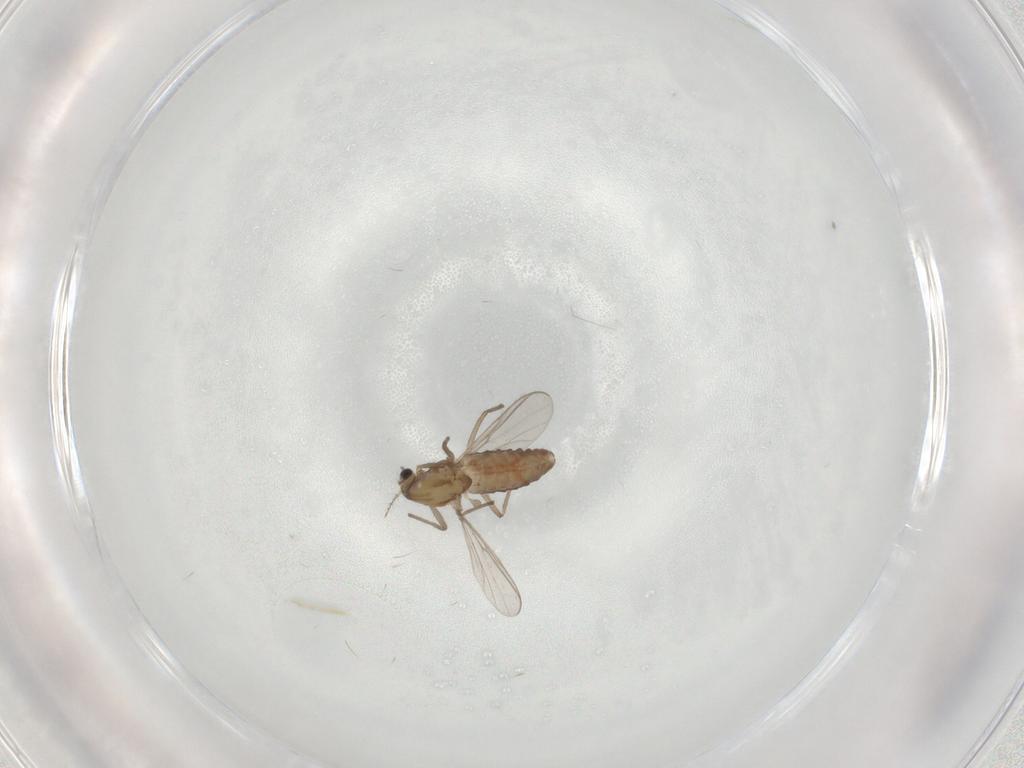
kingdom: Animalia
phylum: Arthropoda
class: Insecta
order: Diptera
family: Chironomidae
